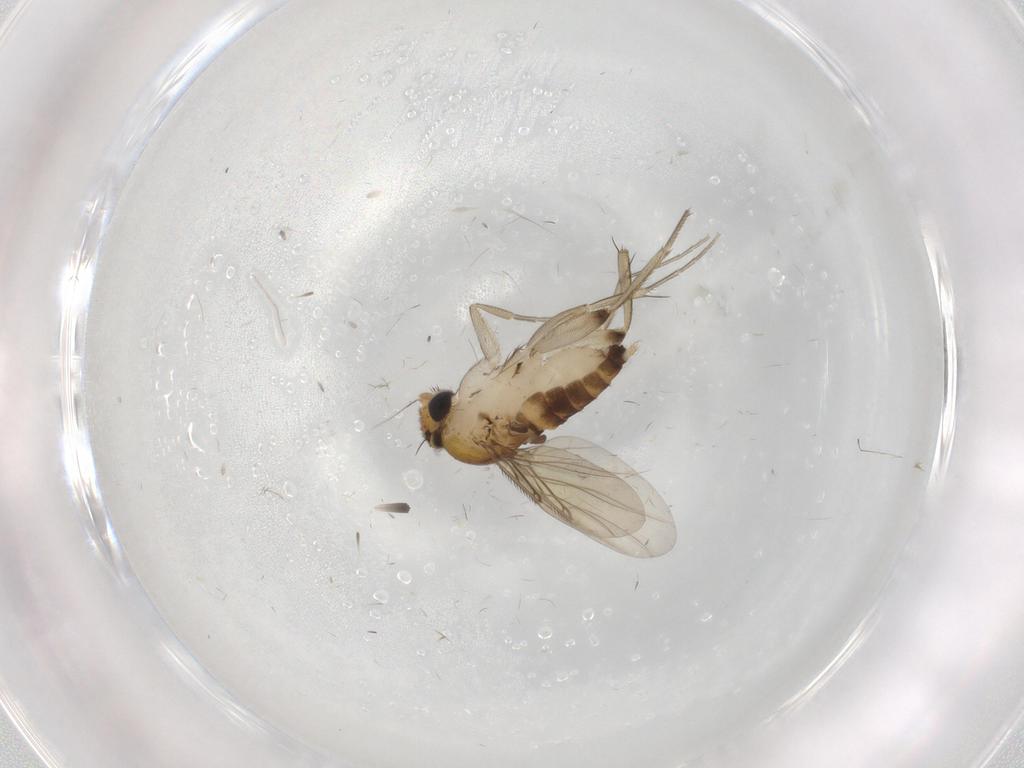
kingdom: Animalia
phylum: Arthropoda
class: Insecta
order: Diptera
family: Phoridae
